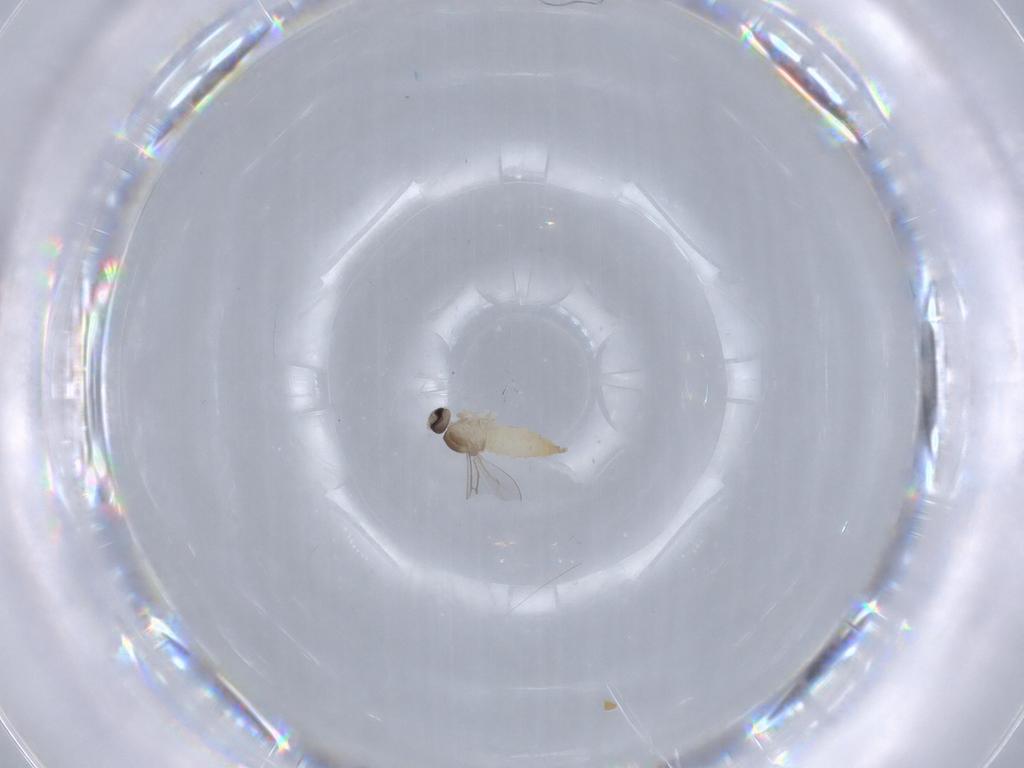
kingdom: Animalia
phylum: Arthropoda
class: Insecta
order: Diptera
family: Cecidomyiidae
